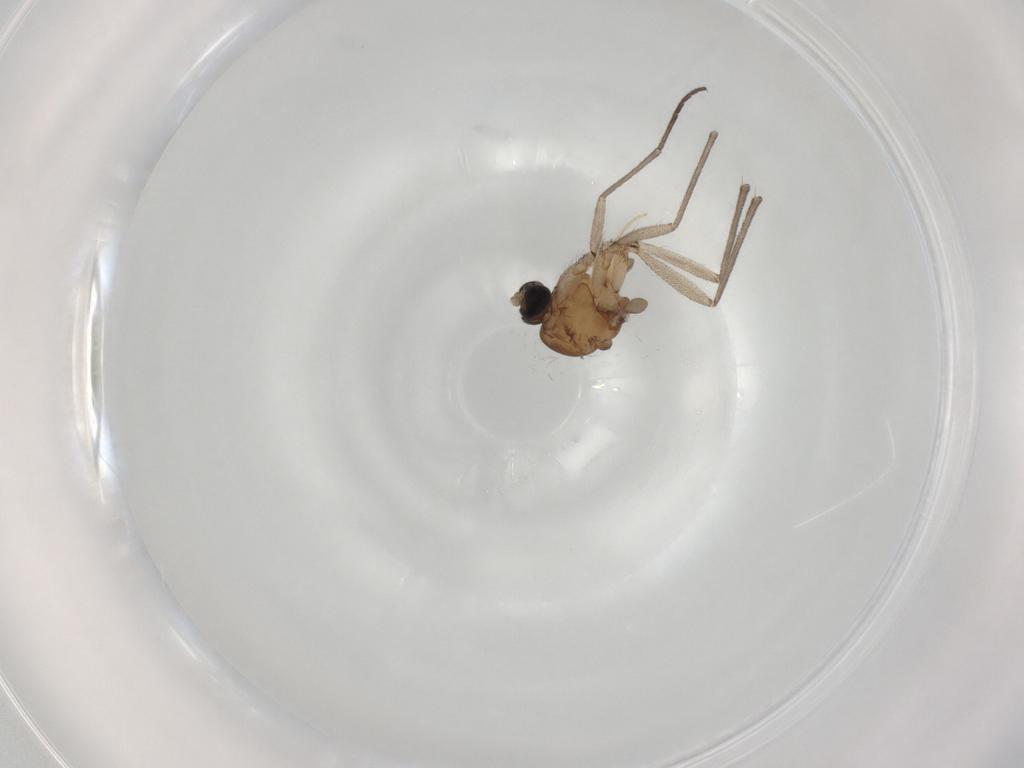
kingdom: Animalia
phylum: Arthropoda
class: Insecta
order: Diptera
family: Sciaridae
